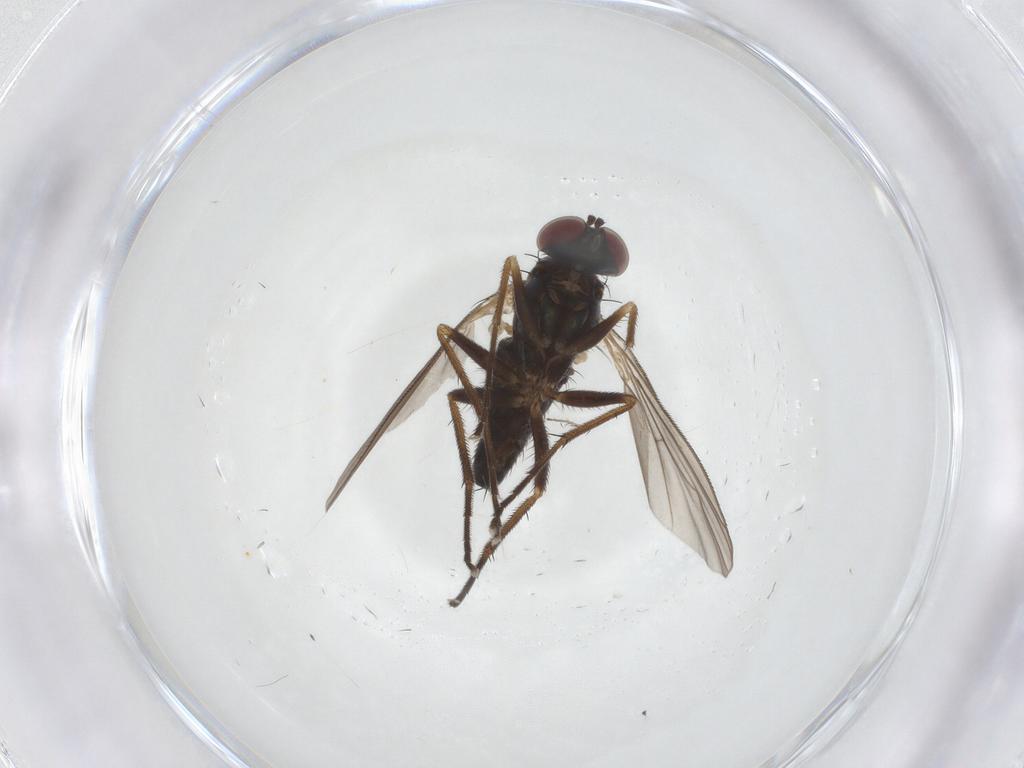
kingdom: Animalia
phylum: Arthropoda
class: Insecta
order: Diptera
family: Dolichopodidae
